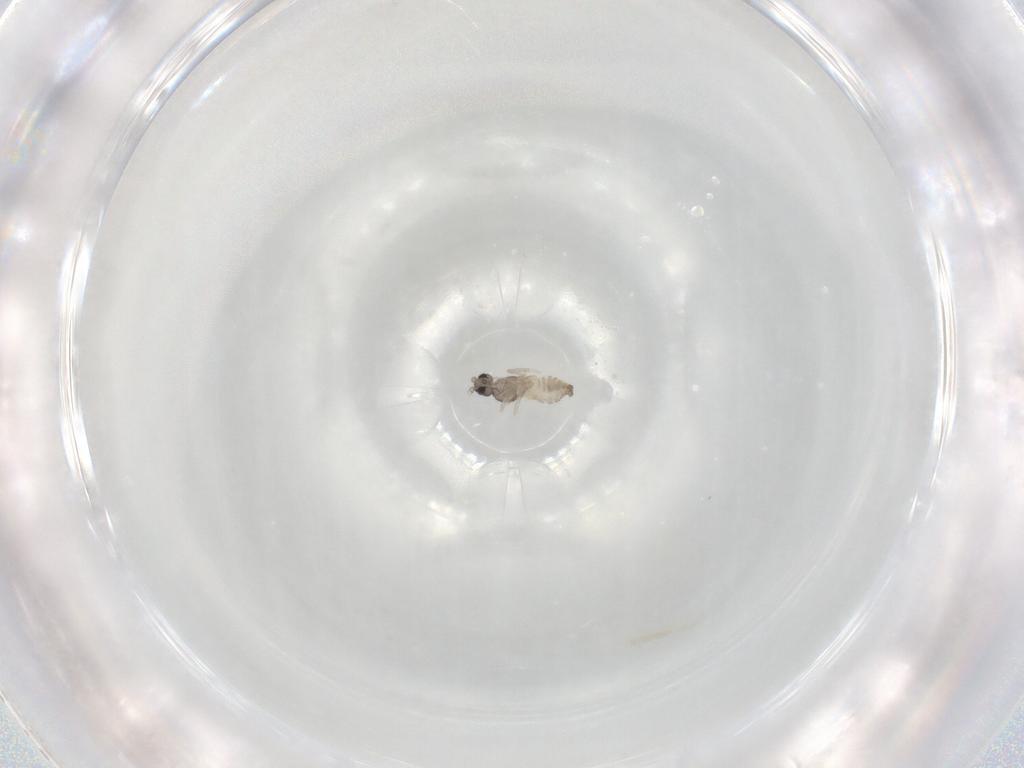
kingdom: Animalia
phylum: Arthropoda
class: Insecta
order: Diptera
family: Cecidomyiidae
